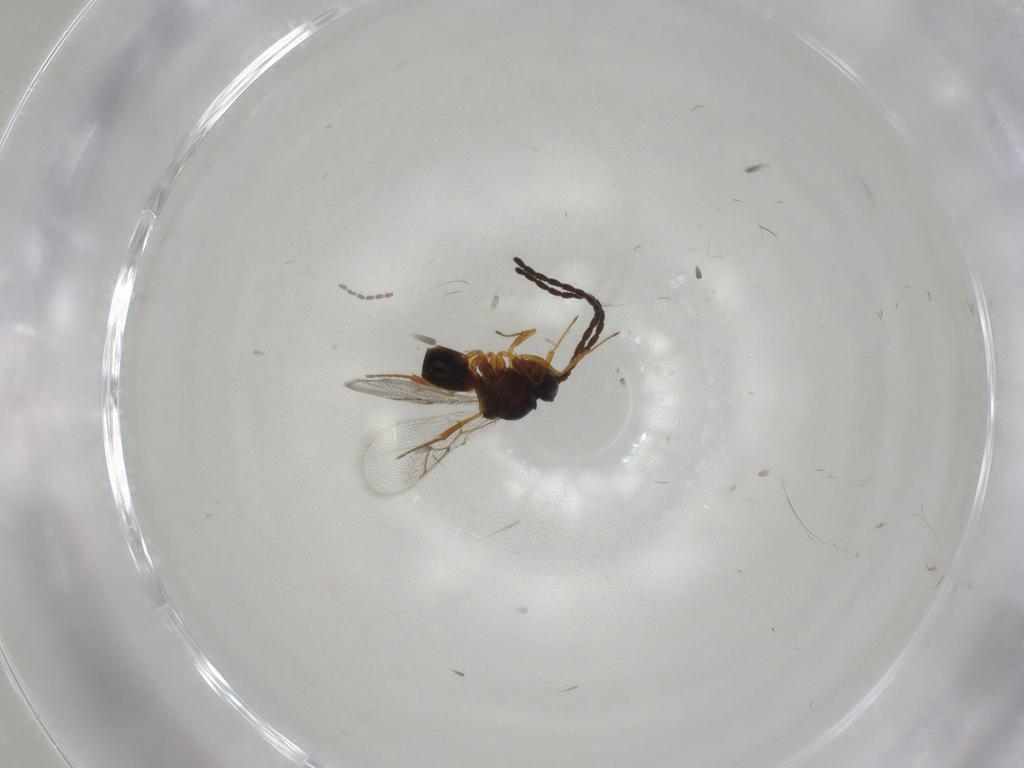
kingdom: Animalia
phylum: Arthropoda
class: Insecta
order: Hymenoptera
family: Figitidae
